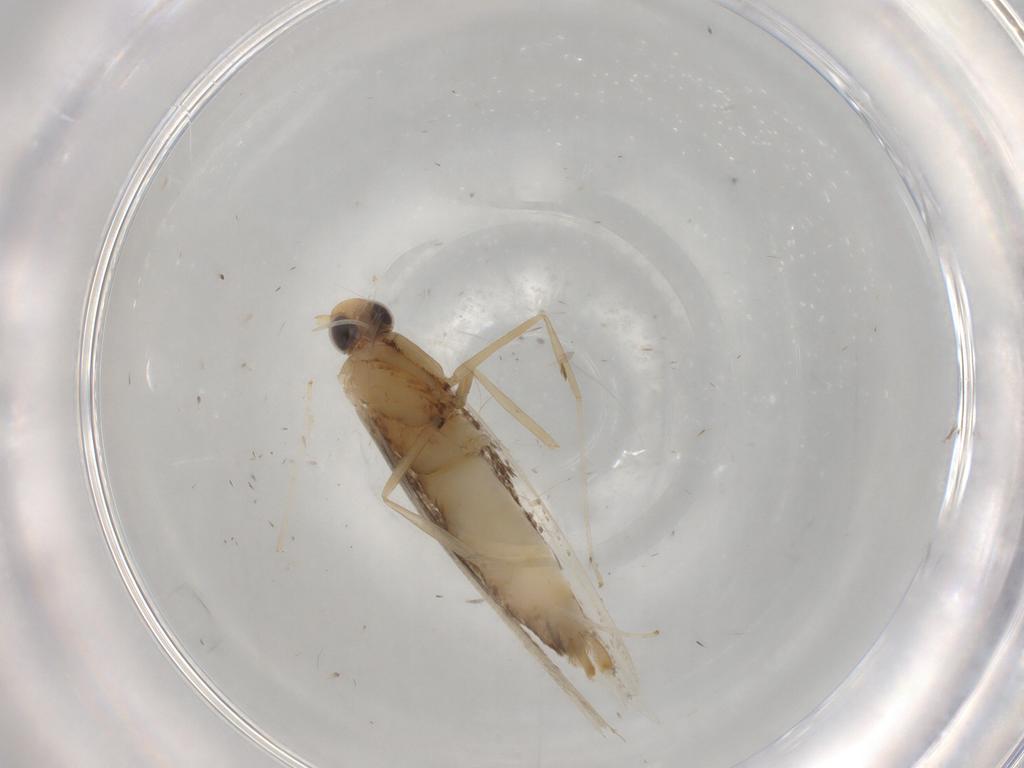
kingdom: Animalia
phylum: Arthropoda
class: Insecta
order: Lepidoptera
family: Gracillariidae
